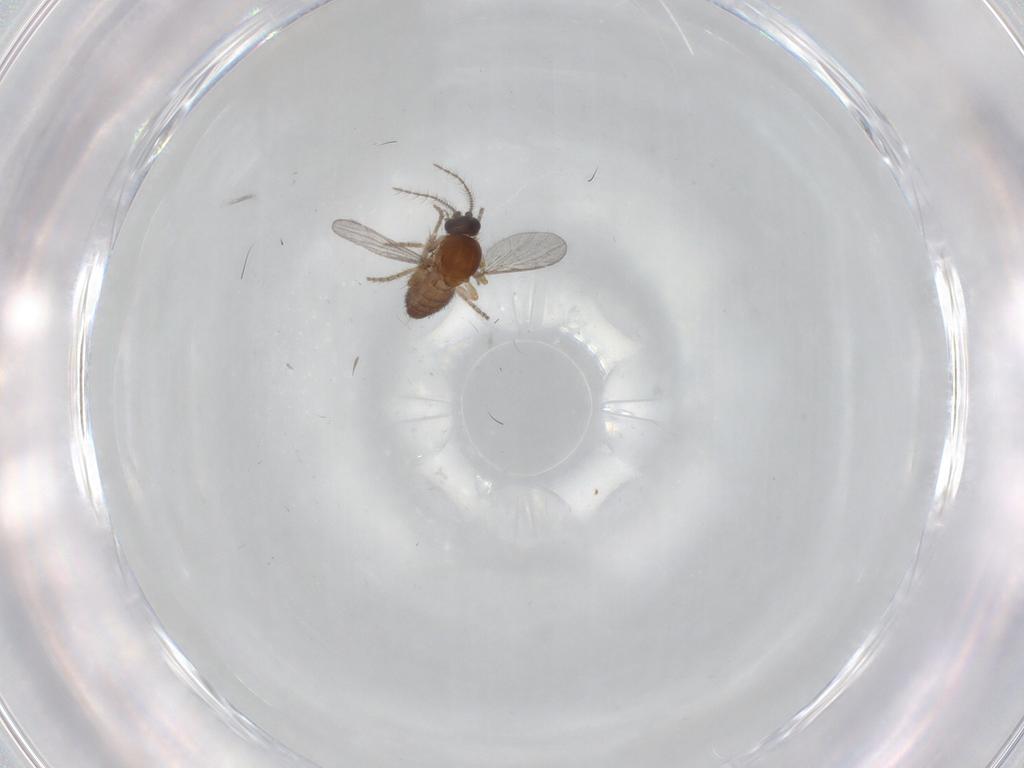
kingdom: Animalia
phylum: Arthropoda
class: Insecta
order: Diptera
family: Ceratopogonidae
